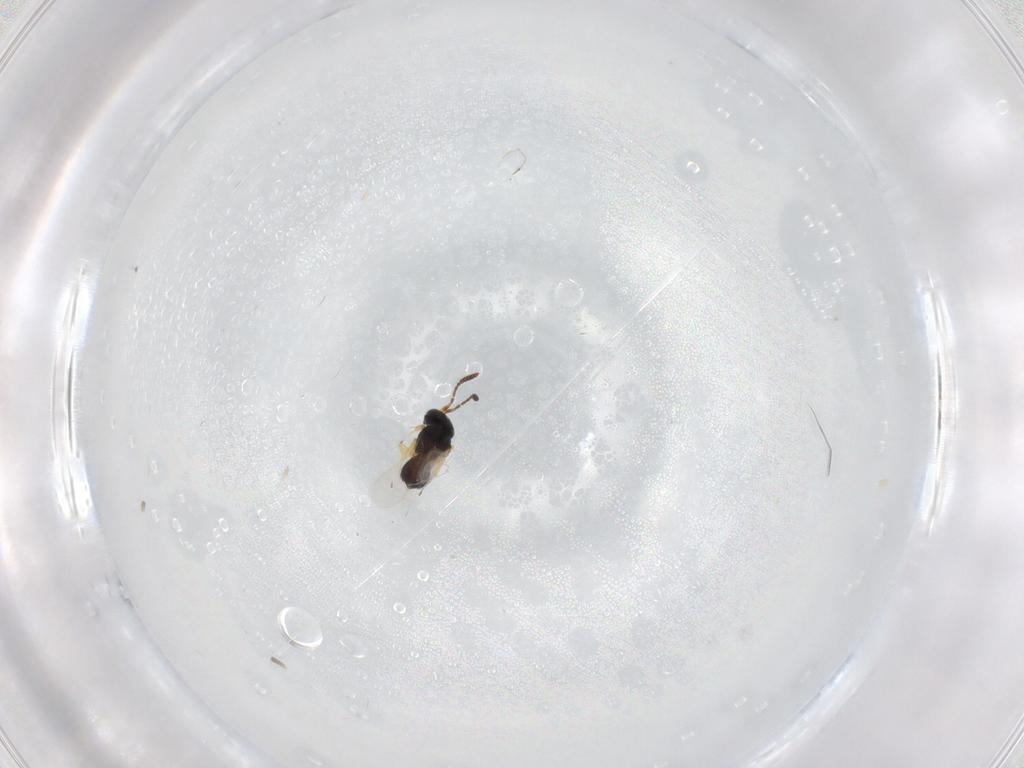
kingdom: Animalia
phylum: Arthropoda
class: Insecta
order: Hymenoptera
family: Scelionidae
